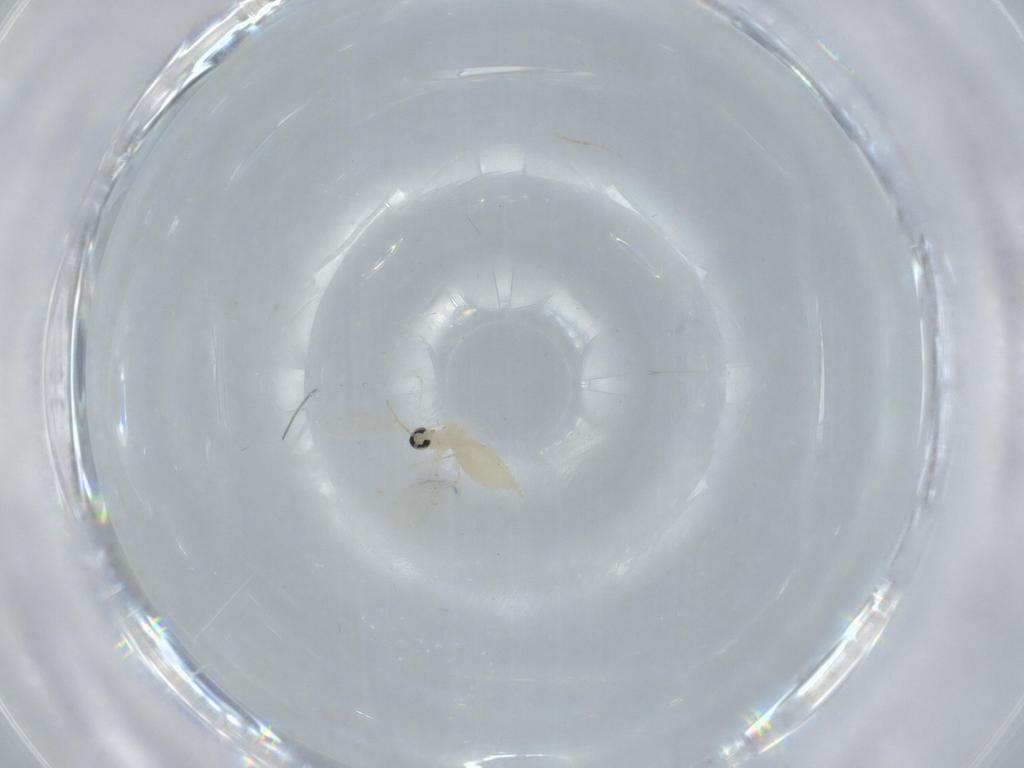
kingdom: Animalia
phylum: Arthropoda
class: Insecta
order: Diptera
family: Cecidomyiidae
